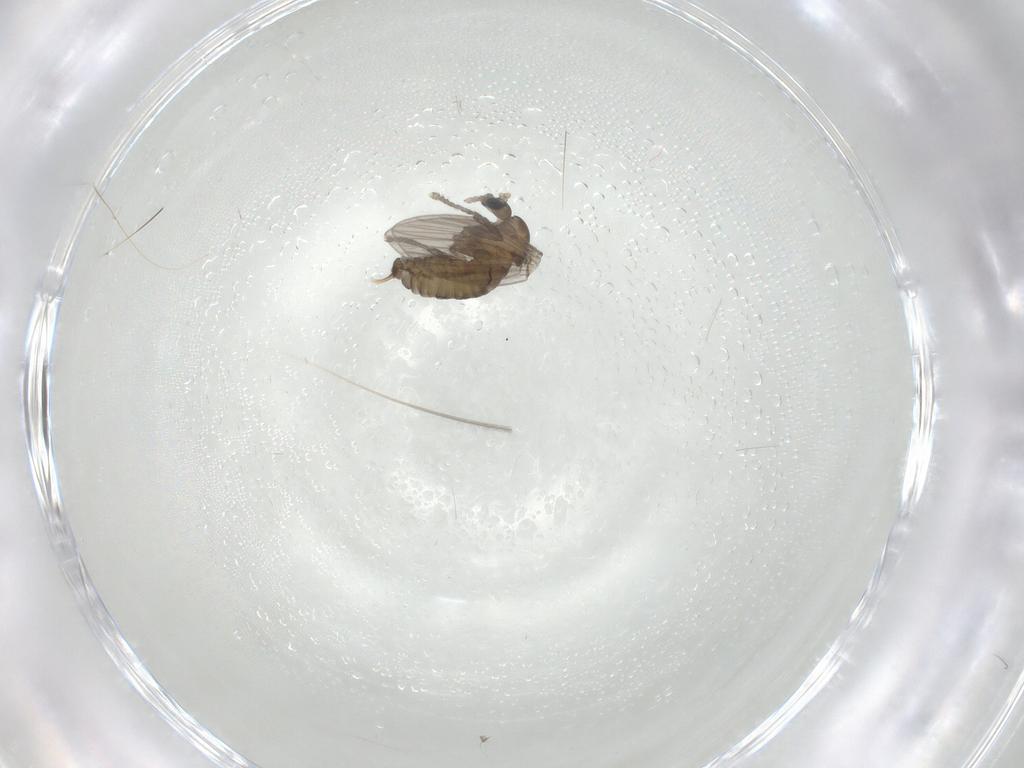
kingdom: Animalia
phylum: Arthropoda
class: Insecta
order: Diptera
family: Psychodidae
